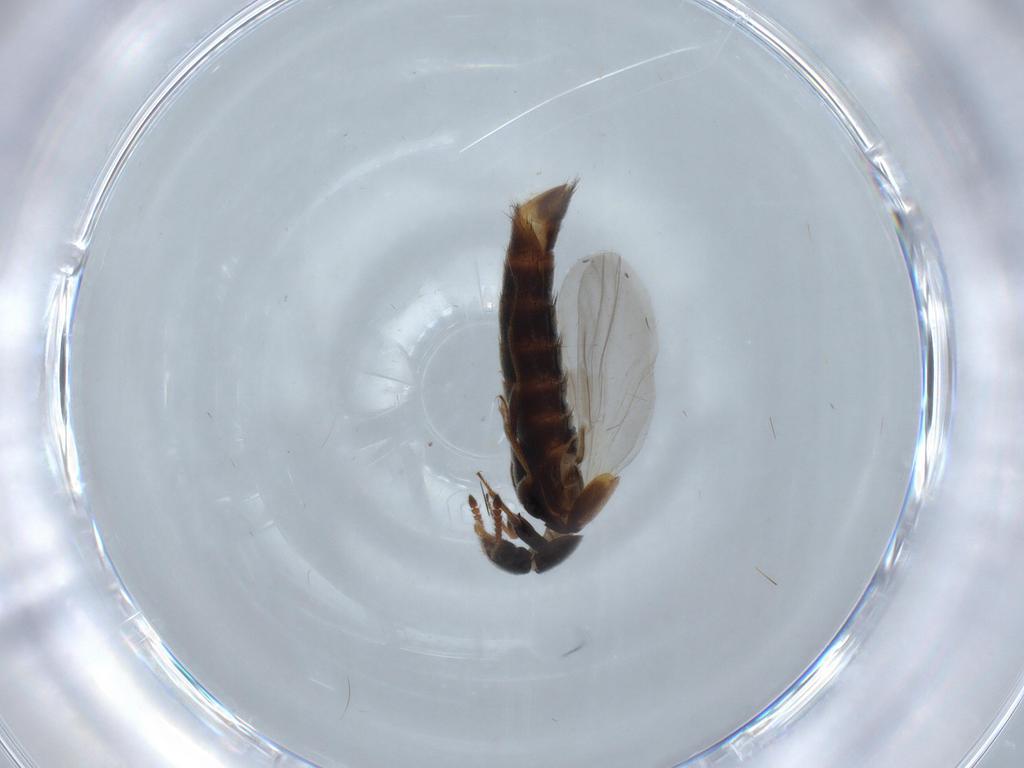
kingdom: Animalia
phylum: Arthropoda
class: Insecta
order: Coleoptera
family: Staphylinidae
